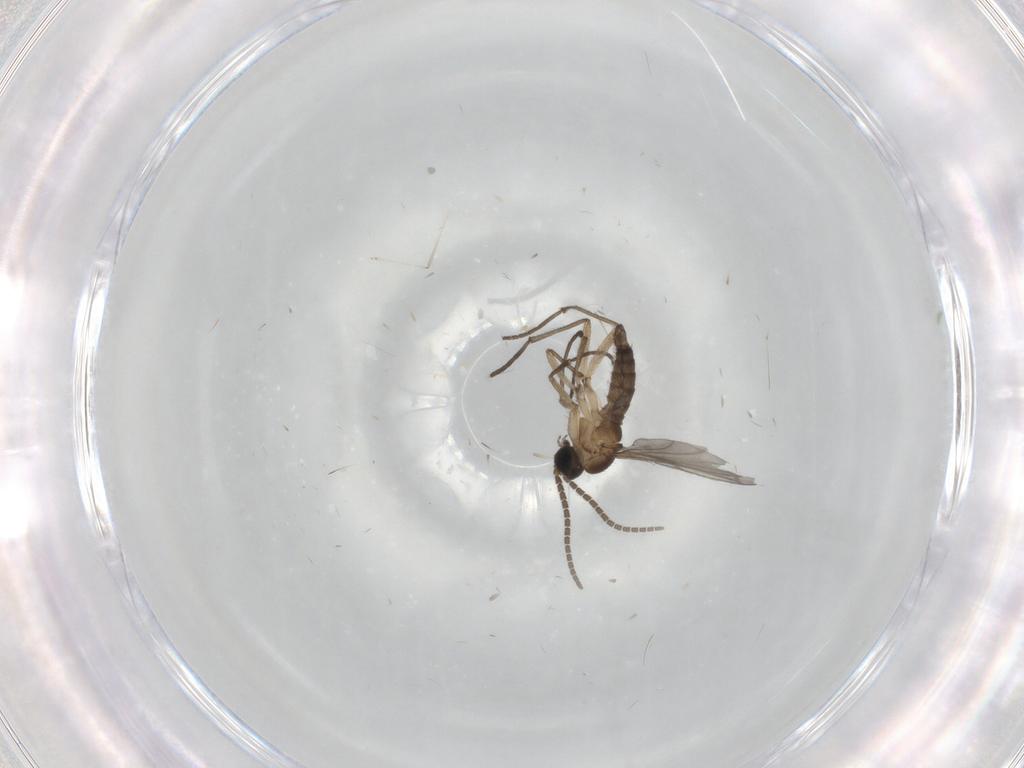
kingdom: Animalia
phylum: Arthropoda
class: Insecta
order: Diptera
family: Sciaridae
